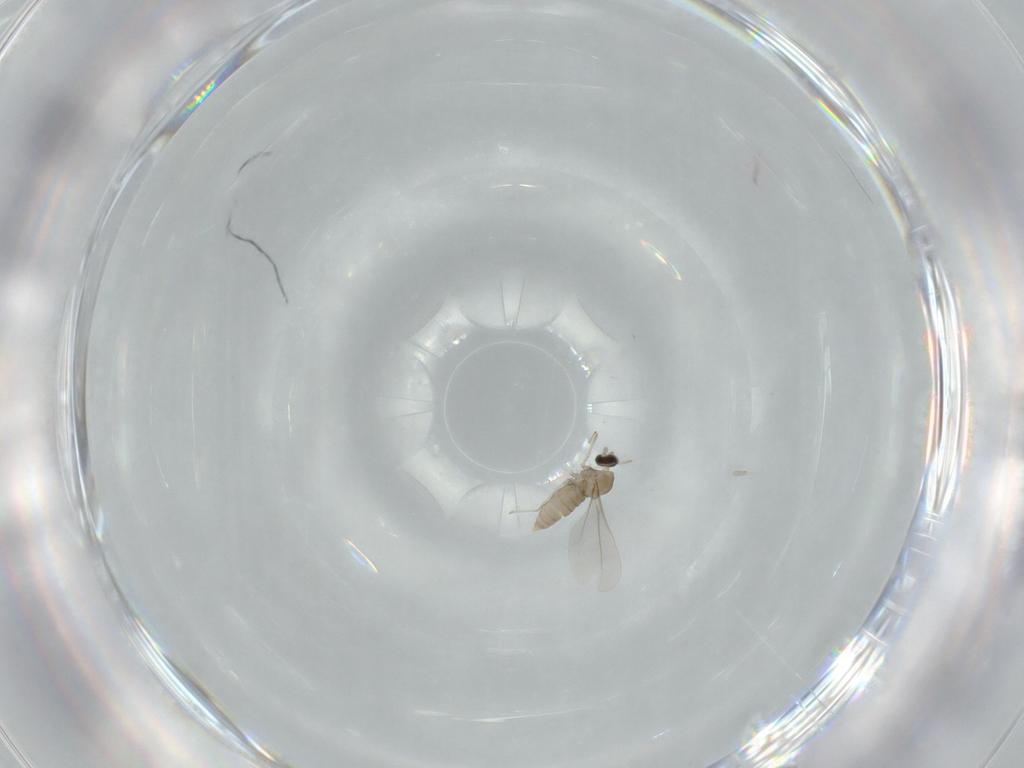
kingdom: Animalia
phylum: Arthropoda
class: Insecta
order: Diptera
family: Cecidomyiidae
